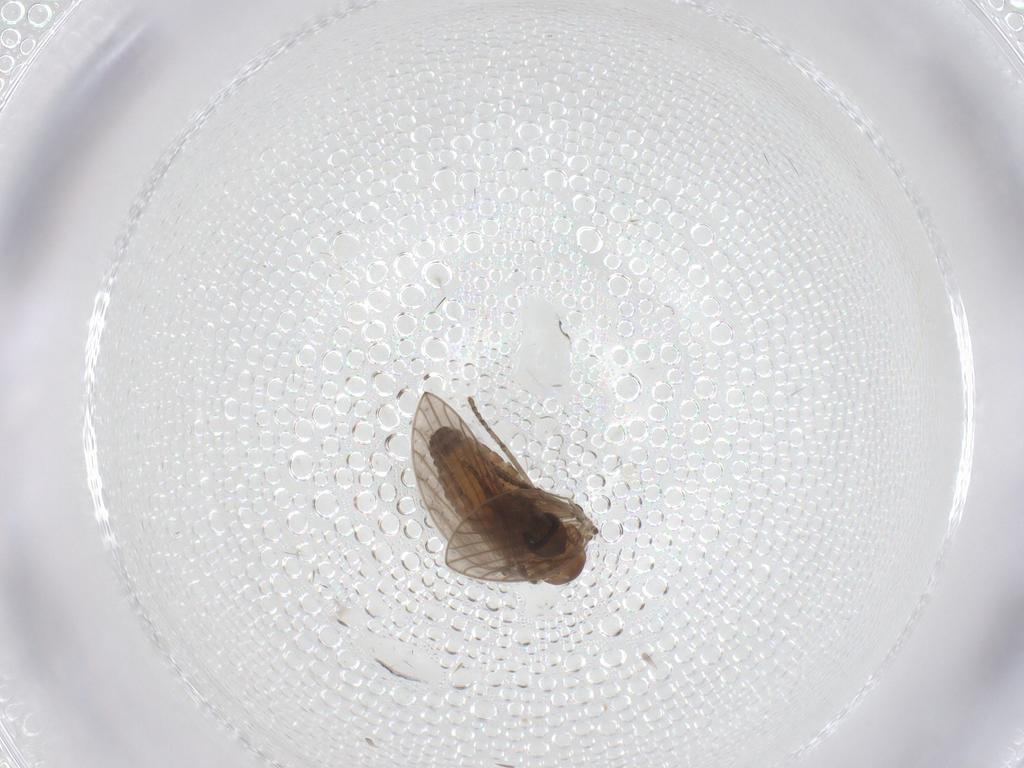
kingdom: Animalia
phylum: Arthropoda
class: Insecta
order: Diptera
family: Psychodidae
